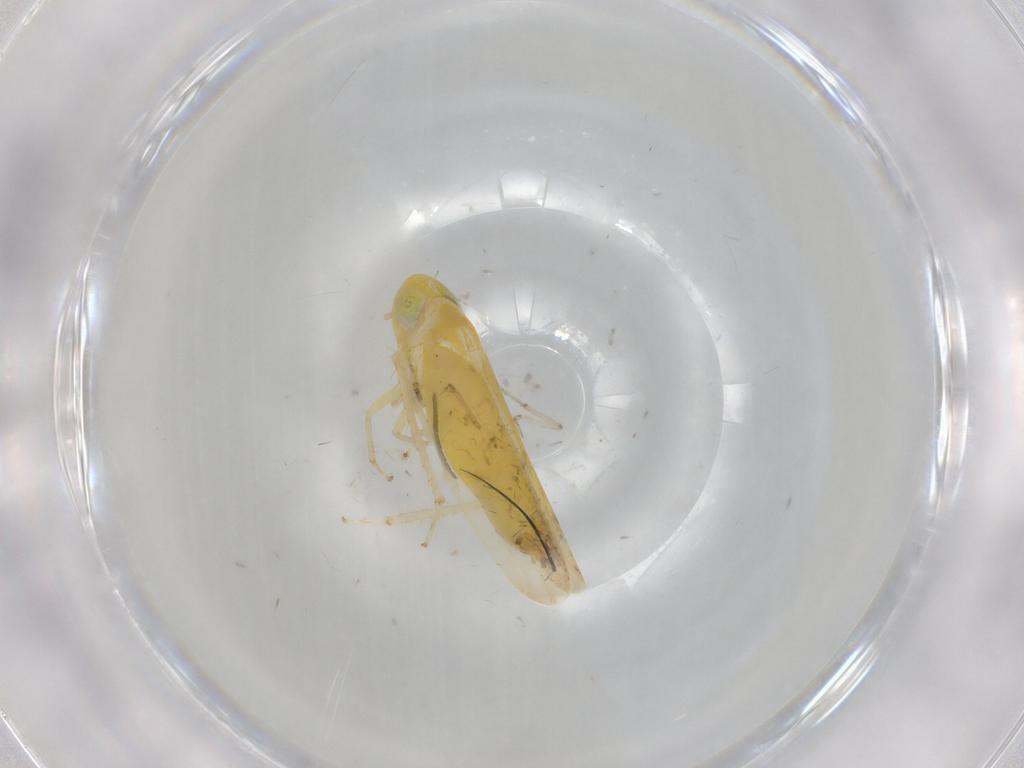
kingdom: Animalia
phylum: Arthropoda
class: Insecta
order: Hemiptera
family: Cicadellidae
